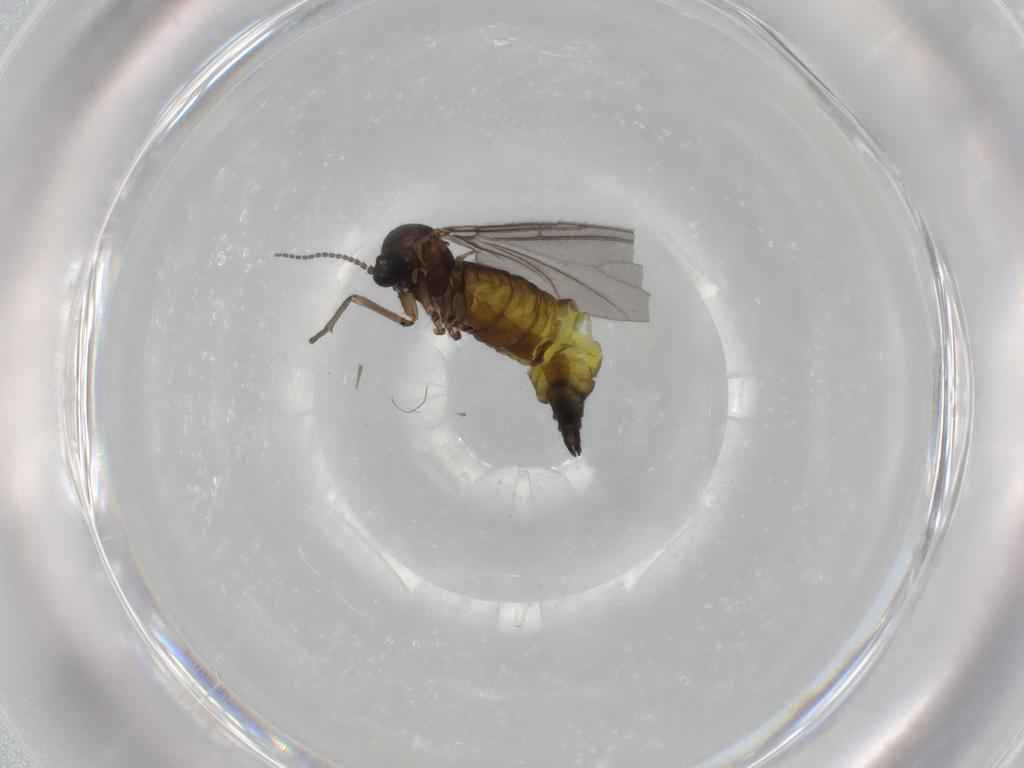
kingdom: Animalia
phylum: Arthropoda
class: Insecta
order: Diptera
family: Sciaridae
